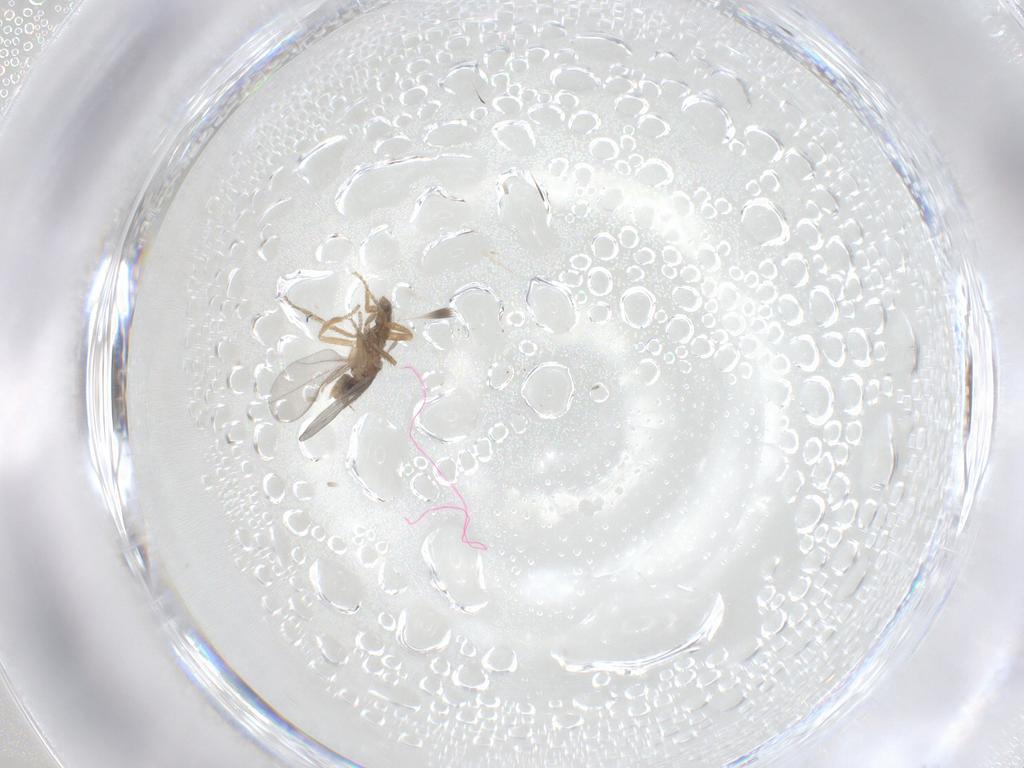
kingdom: Animalia
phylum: Arthropoda
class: Insecta
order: Diptera
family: Phoridae
